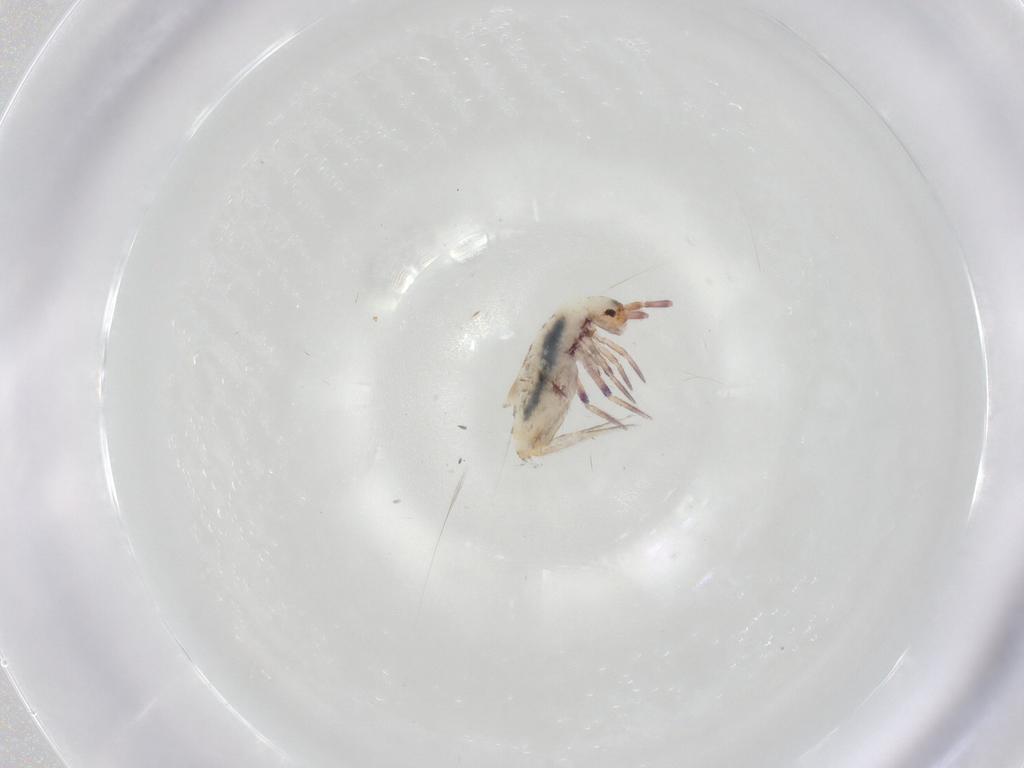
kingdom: Animalia
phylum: Arthropoda
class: Collembola
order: Entomobryomorpha
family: Entomobryidae
